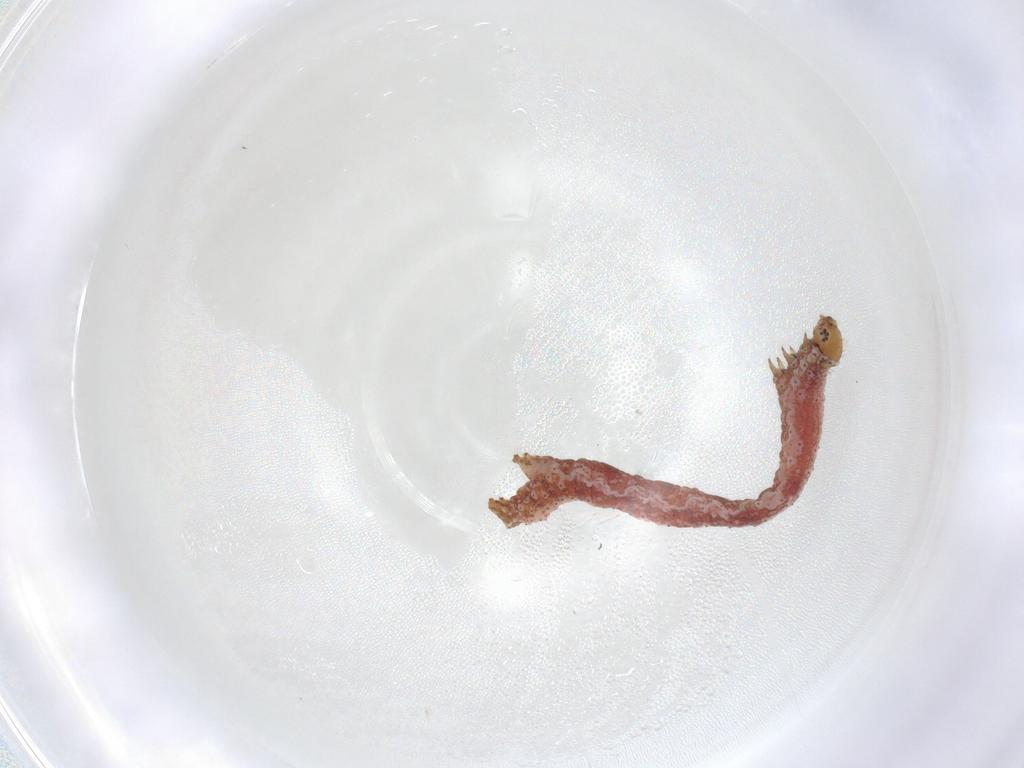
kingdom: Animalia
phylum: Arthropoda
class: Insecta
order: Lepidoptera
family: Geometridae
